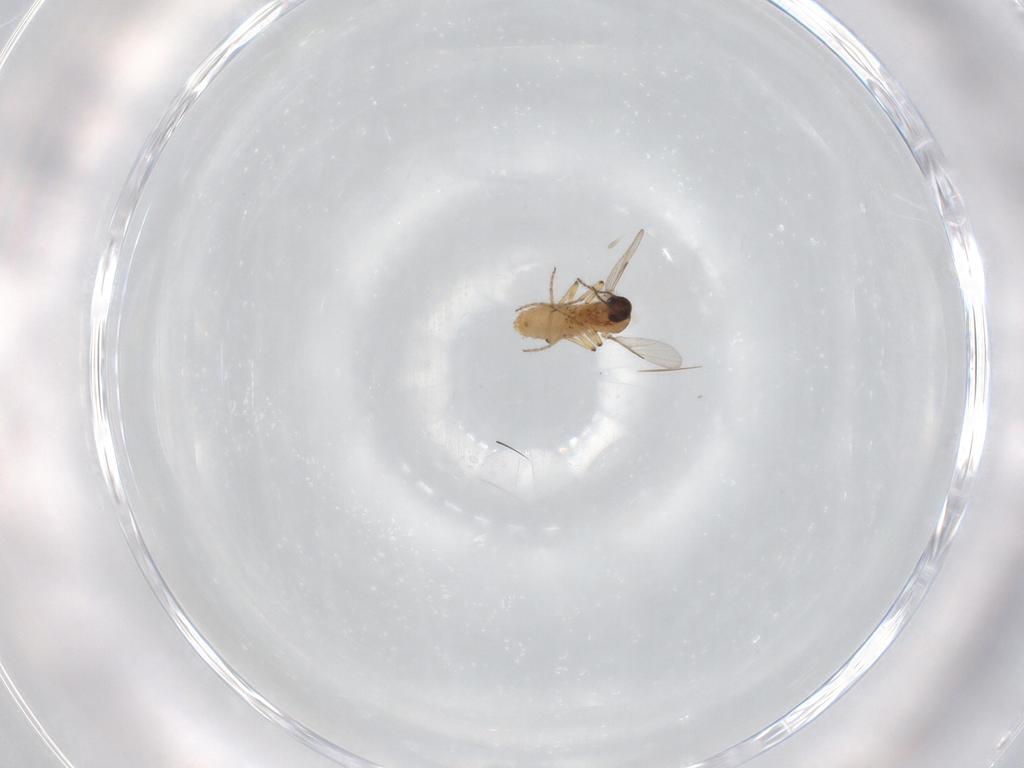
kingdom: Animalia
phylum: Arthropoda
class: Insecta
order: Diptera
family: Ceratopogonidae
